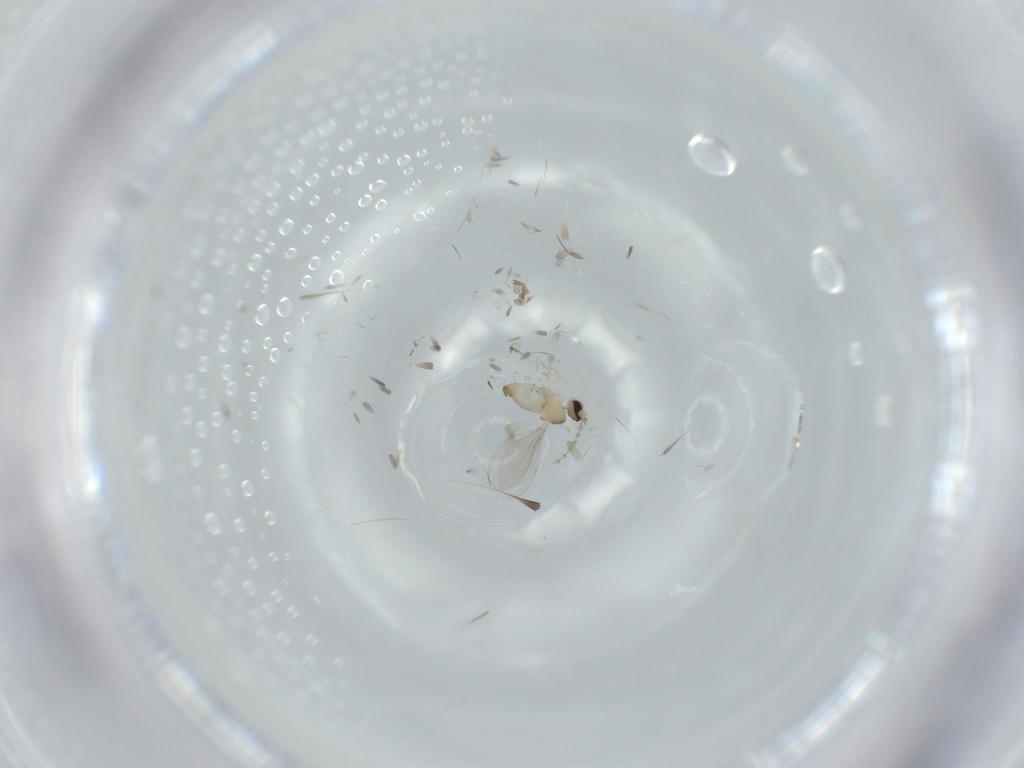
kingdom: Animalia
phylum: Arthropoda
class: Insecta
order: Diptera
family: Cecidomyiidae
